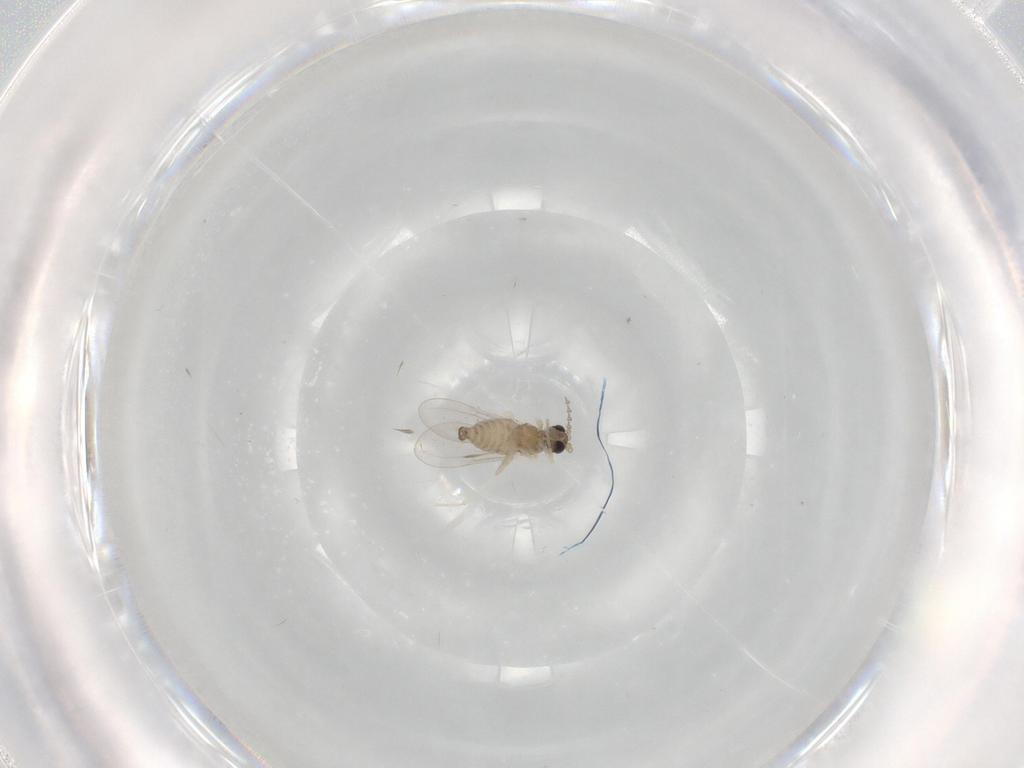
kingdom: Animalia
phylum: Arthropoda
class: Insecta
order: Diptera
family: Cecidomyiidae
